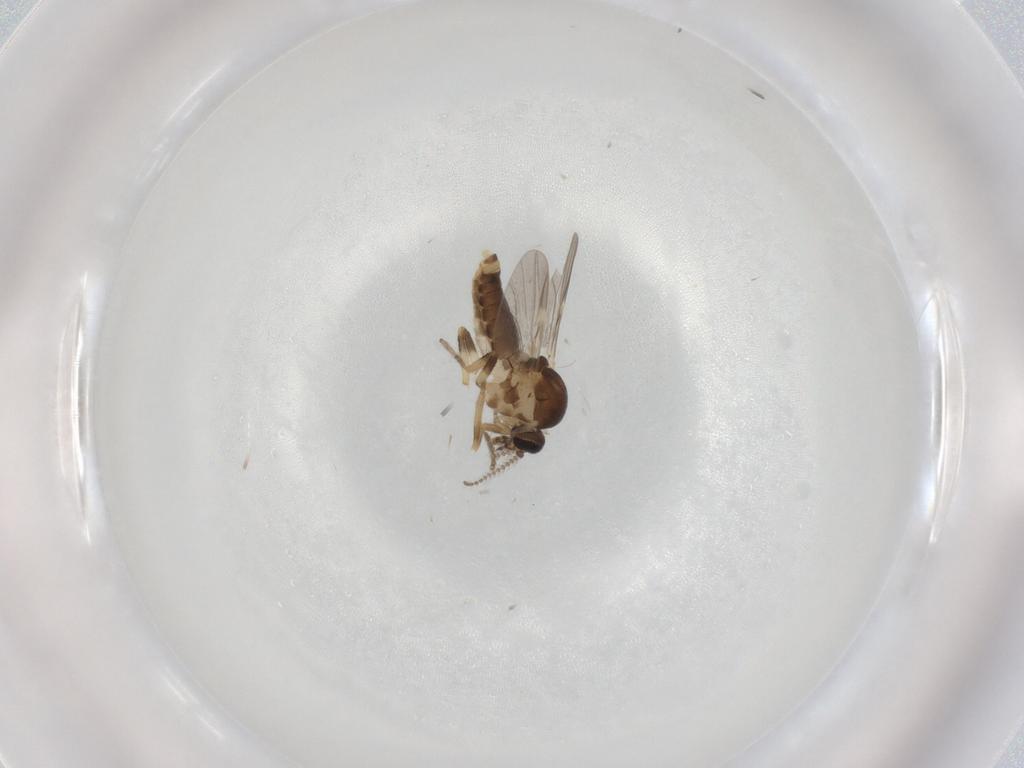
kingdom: Animalia
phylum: Arthropoda
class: Insecta
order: Diptera
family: Ceratopogonidae
